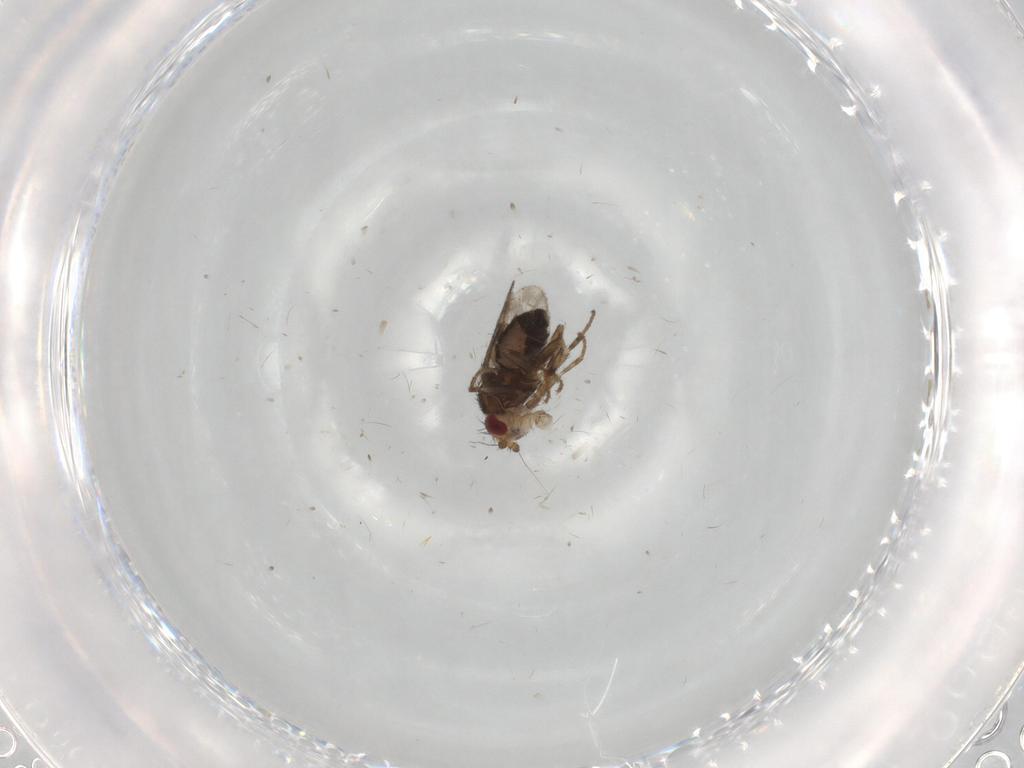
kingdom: Animalia
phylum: Arthropoda
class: Insecta
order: Diptera
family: Sphaeroceridae
